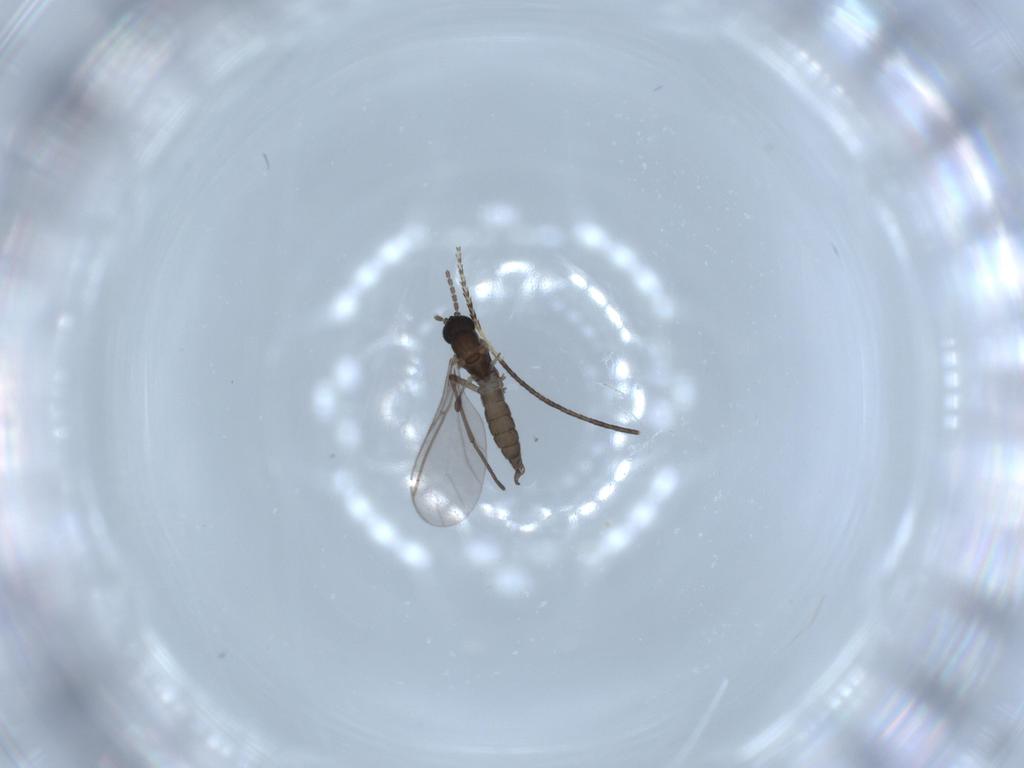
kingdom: Animalia
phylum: Arthropoda
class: Insecta
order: Diptera
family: Sciaridae
